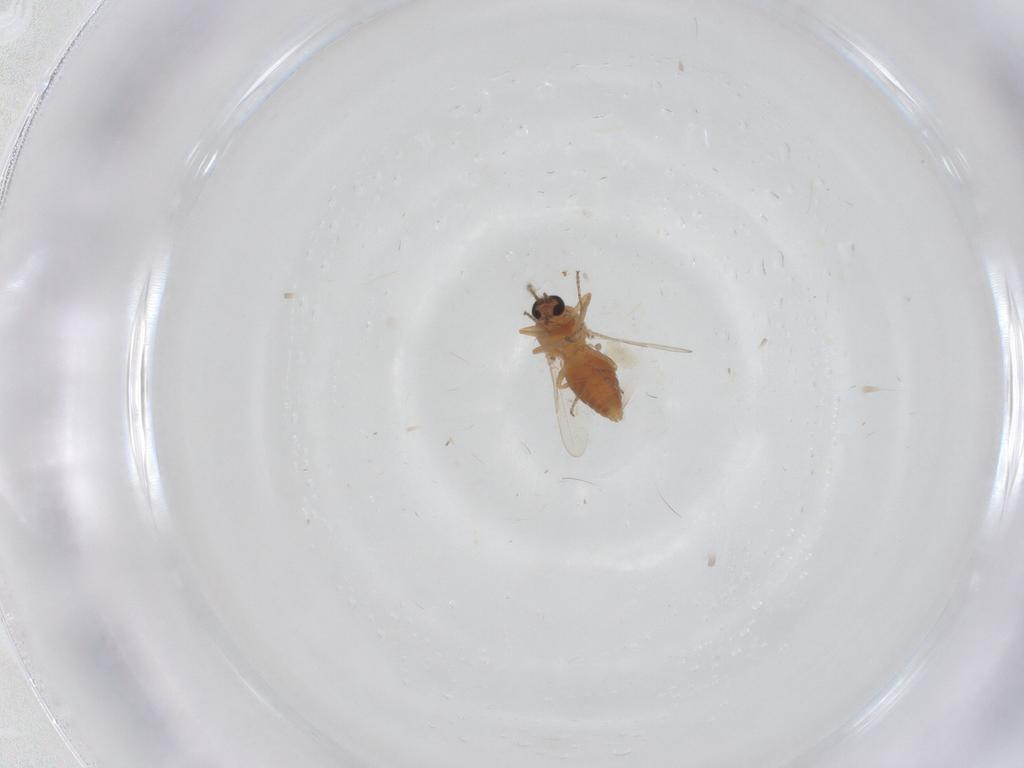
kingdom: Animalia
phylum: Arthropoda
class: Insecta
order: Diptera
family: Ceratopogonidae
